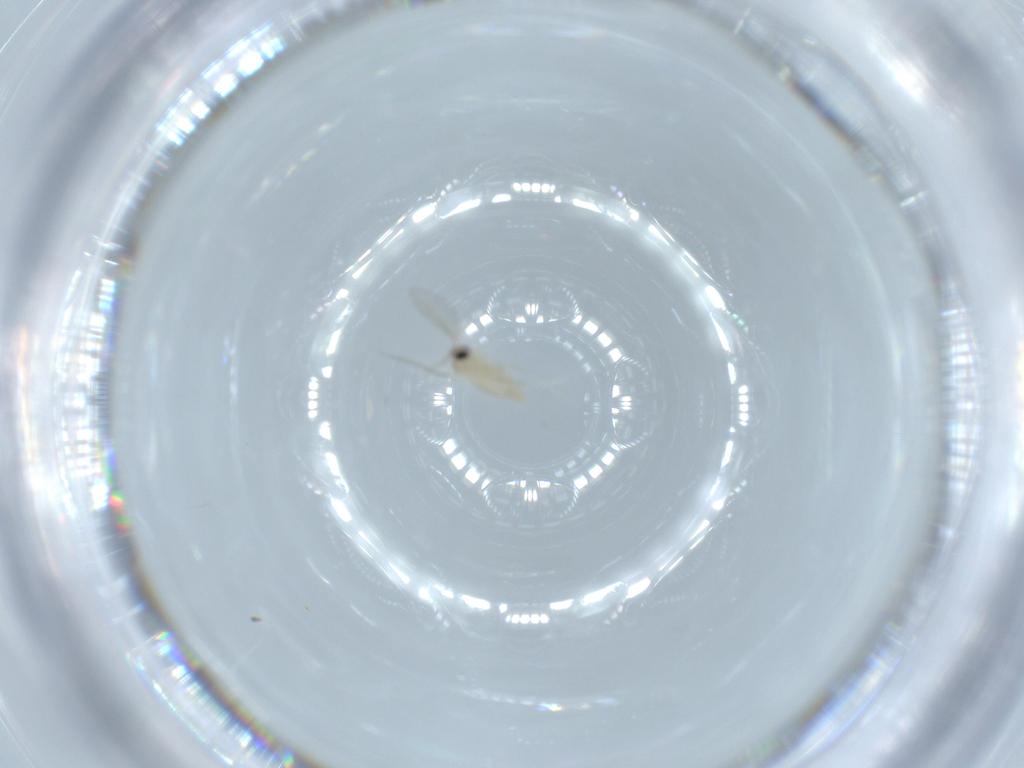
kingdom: Animalia
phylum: Arthropoda
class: Insecta
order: Diptera
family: Cecidomyiidae
